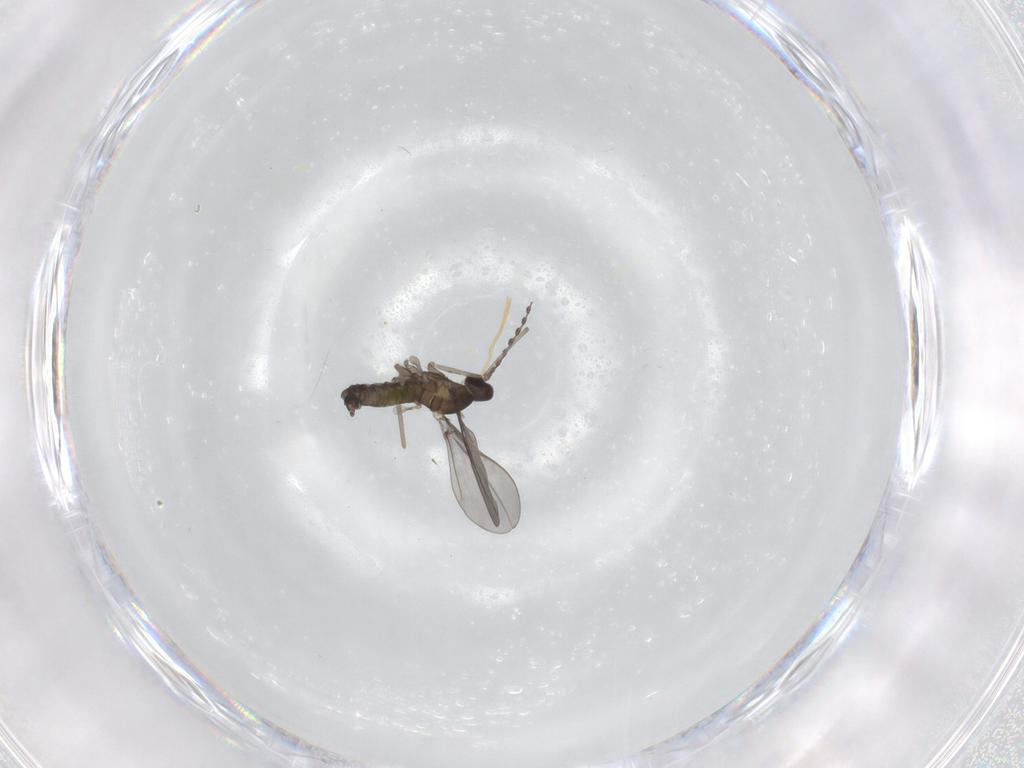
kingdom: Animalia
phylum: Arthropoda
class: Insecta
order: Diptera
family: Cecidomyiidae
